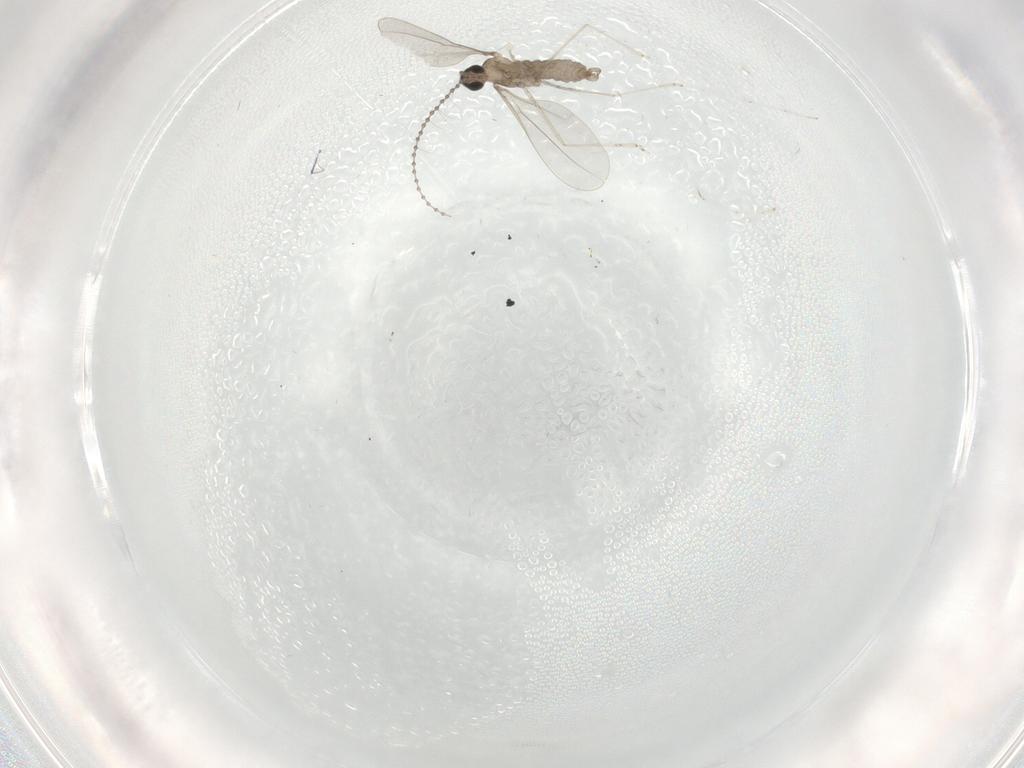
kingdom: Animalia
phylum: Arthropoda
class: Insecta
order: Diptera
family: Cecidomyiidae
